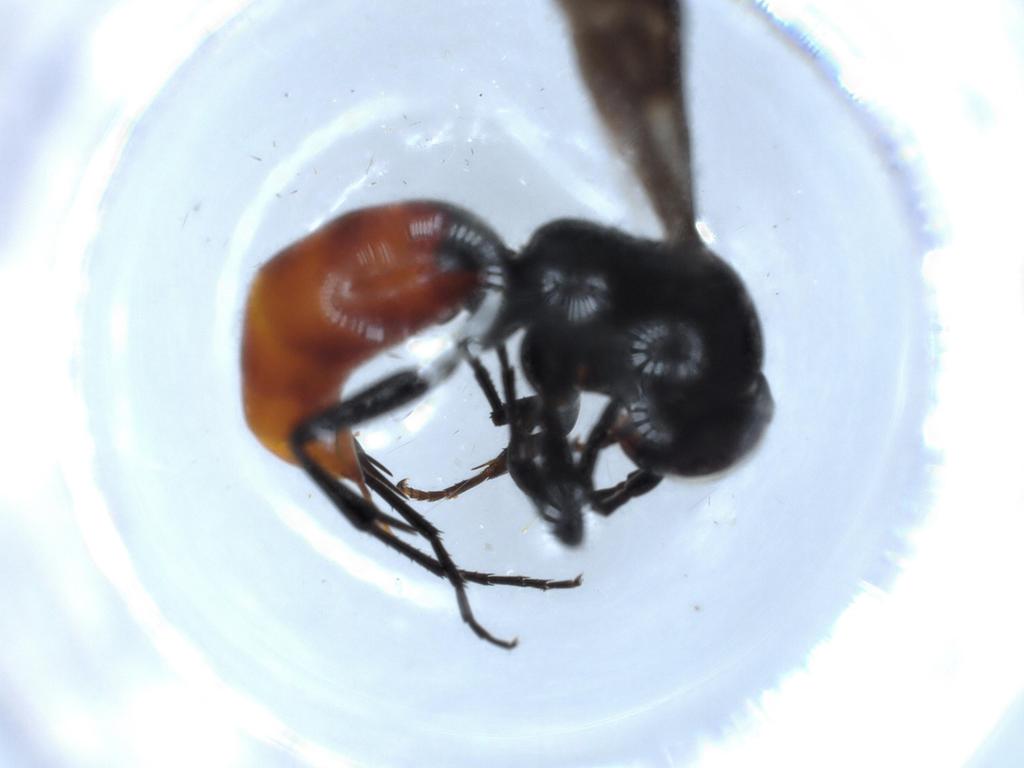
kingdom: Animalia
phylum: Arthropoda
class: Insecta
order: Hymenoptera
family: Pompilidae
